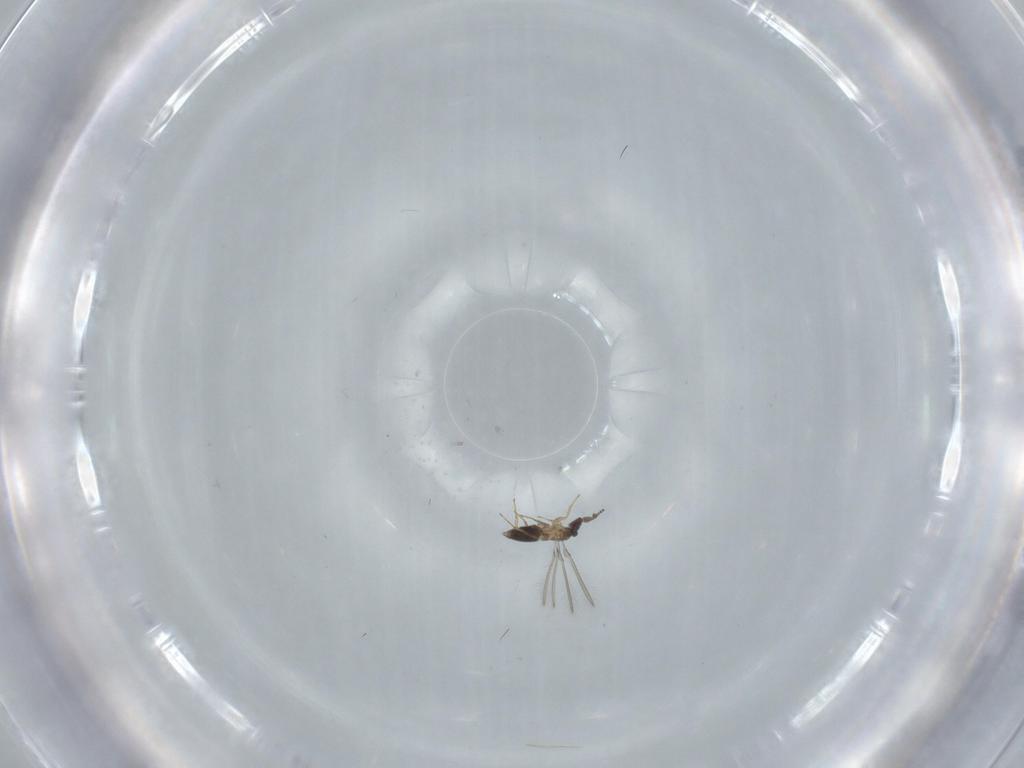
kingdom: Animalia
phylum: Arthropoda
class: Insecta
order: Hymenoptera
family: Mymaridae
